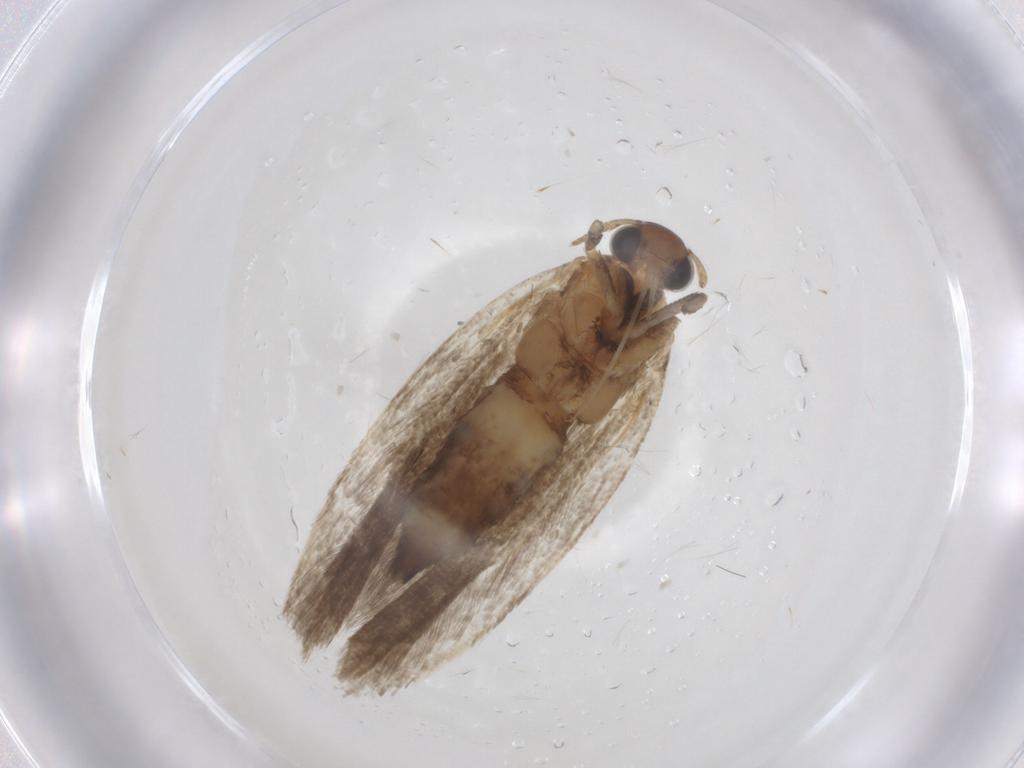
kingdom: Animalia
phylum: Arthropoda
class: Insecta
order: Lepidoptera
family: Gelechiidae
